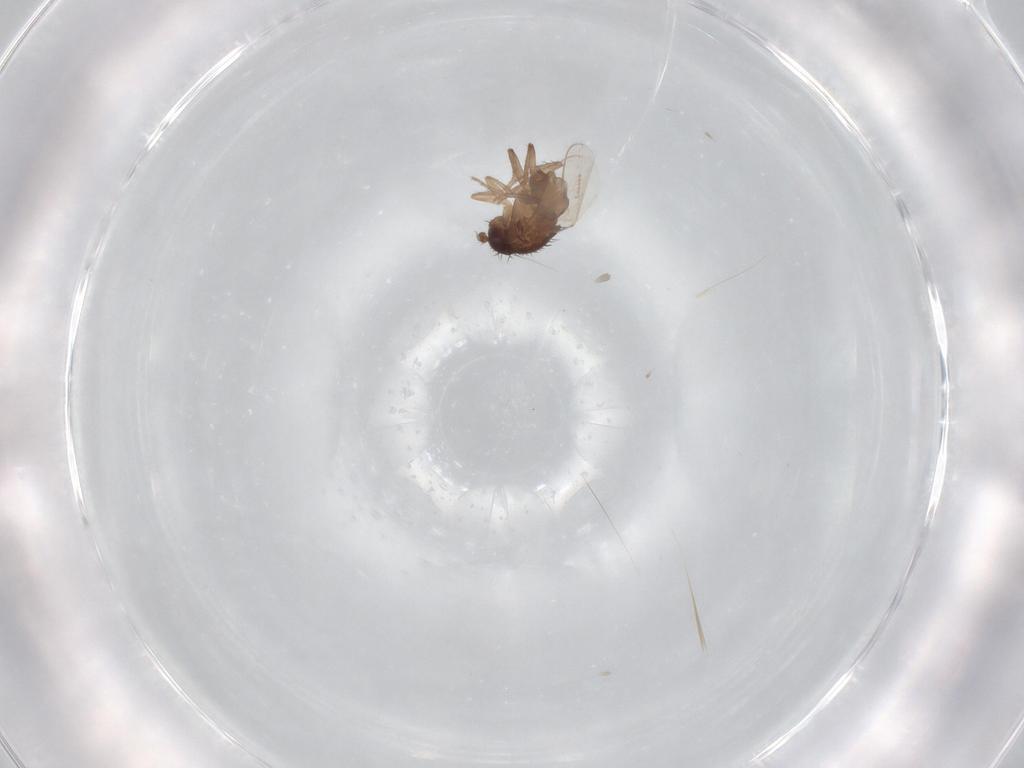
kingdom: Animalia
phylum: Arthropoda
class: Insecta
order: Diptera
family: Sphaeroceridae
